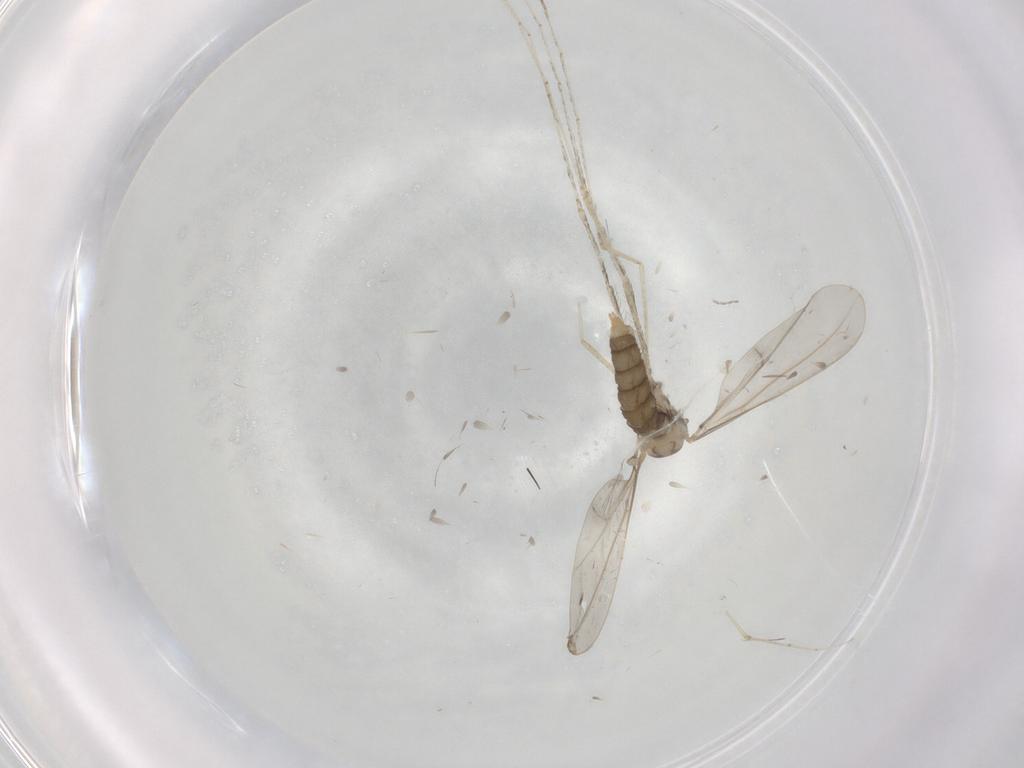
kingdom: Animalia
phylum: Arthropoda
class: Insecta
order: Diptera
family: Cecidomyiidae
